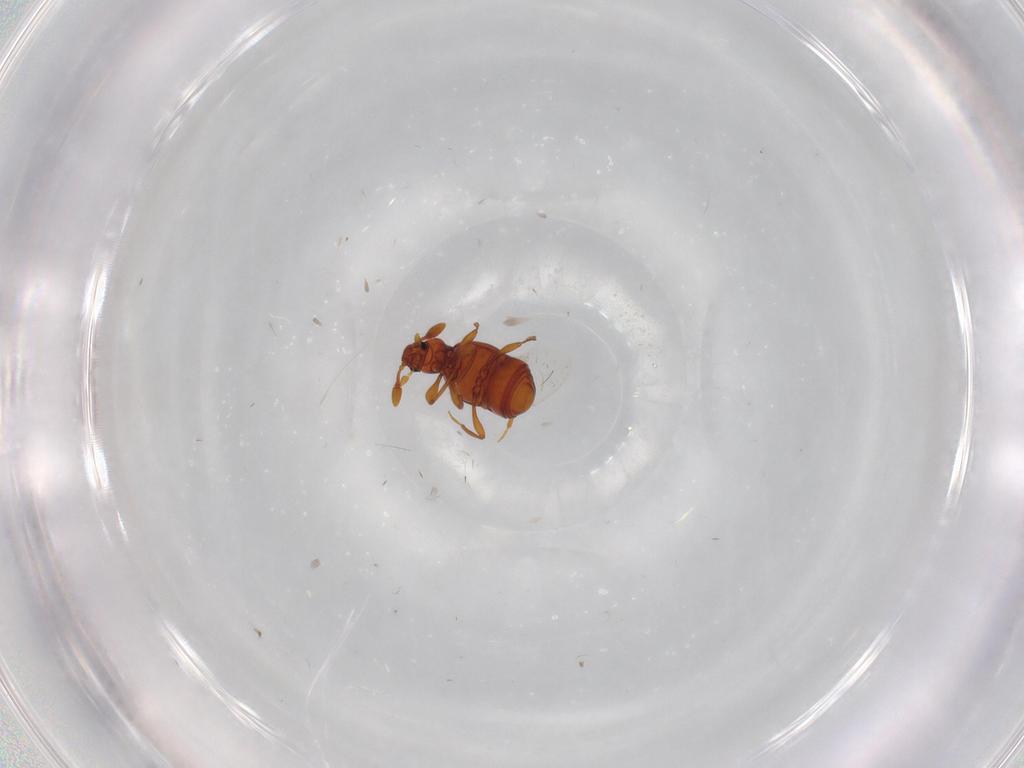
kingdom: Animalia
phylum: Arthropoda
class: Insecta
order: Coleoptera
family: Staphylinidae
